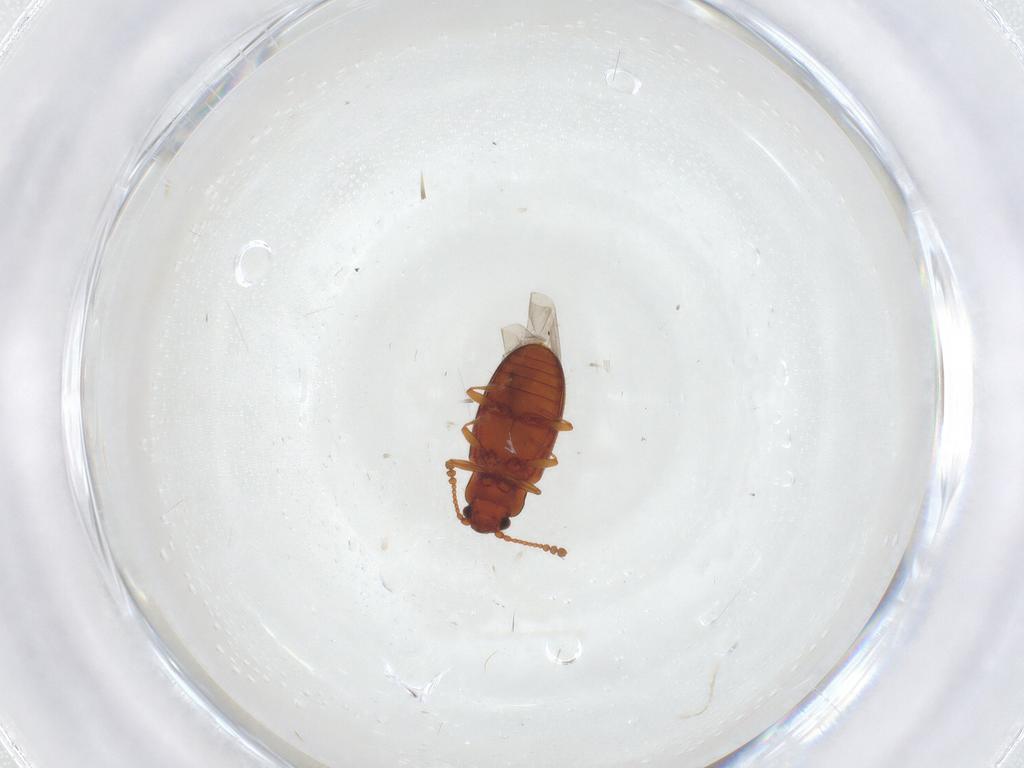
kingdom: Animalia
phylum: Arthropoda
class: Insecta
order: Coleoptera
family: Cryptophagidae
